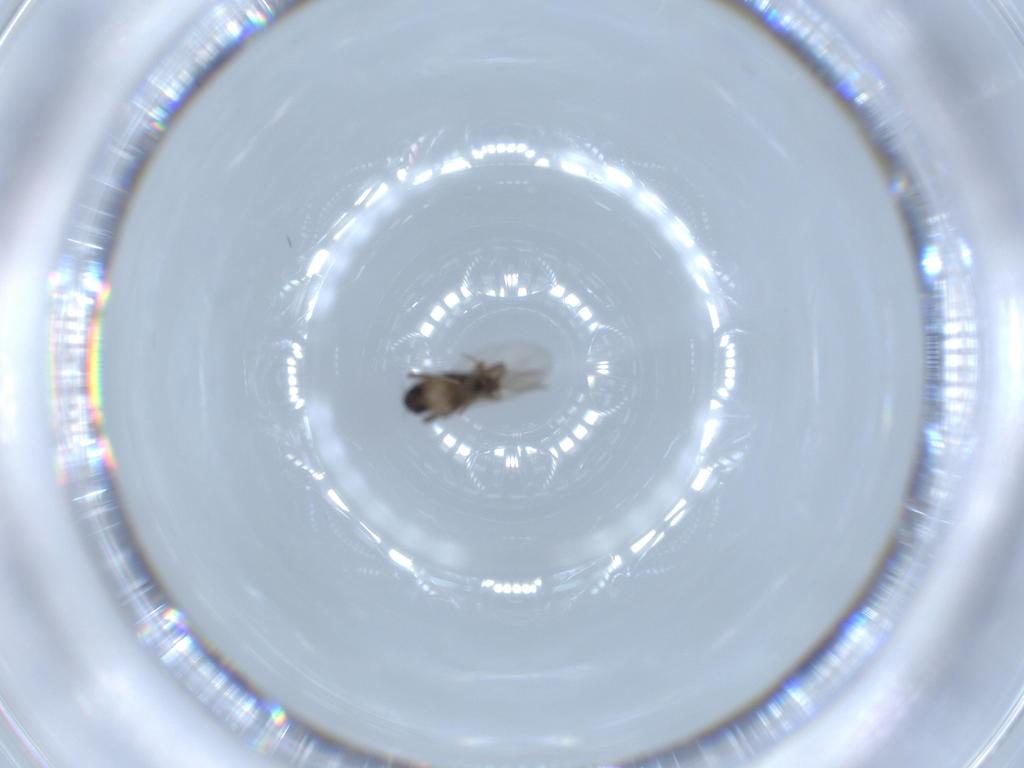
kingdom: Animalia
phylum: Arthropoda
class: Insecta
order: Diptera
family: Phoridae
